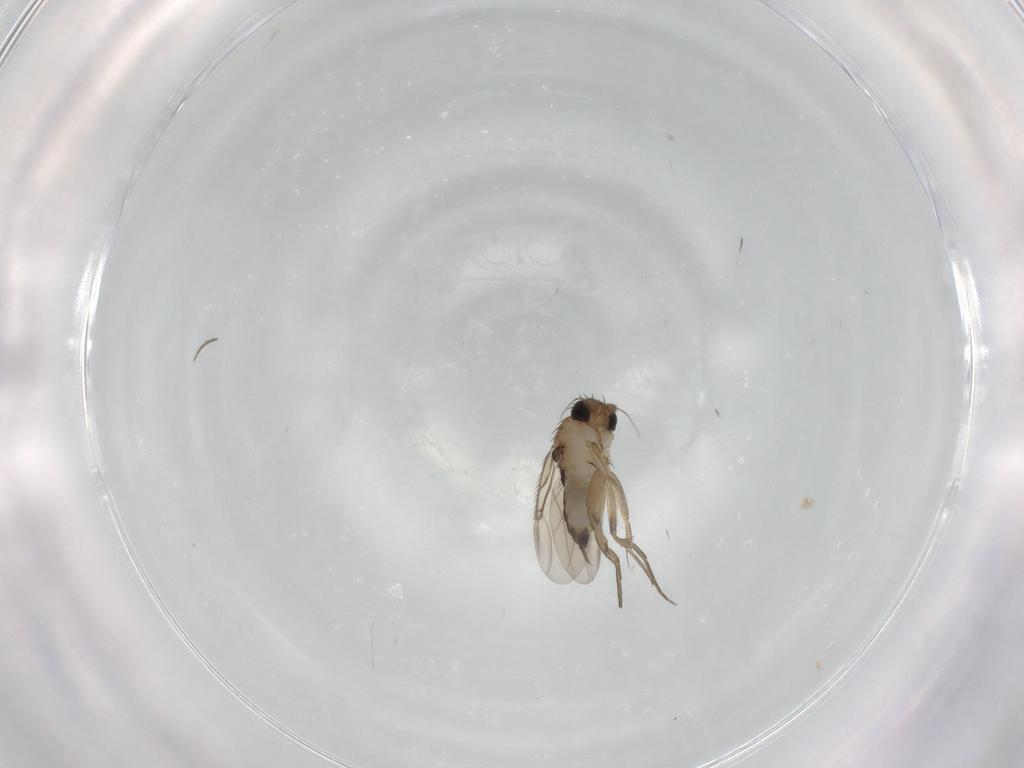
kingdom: Animalia
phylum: Arthropoda
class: Insecta
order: Diptera
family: Phoridae
